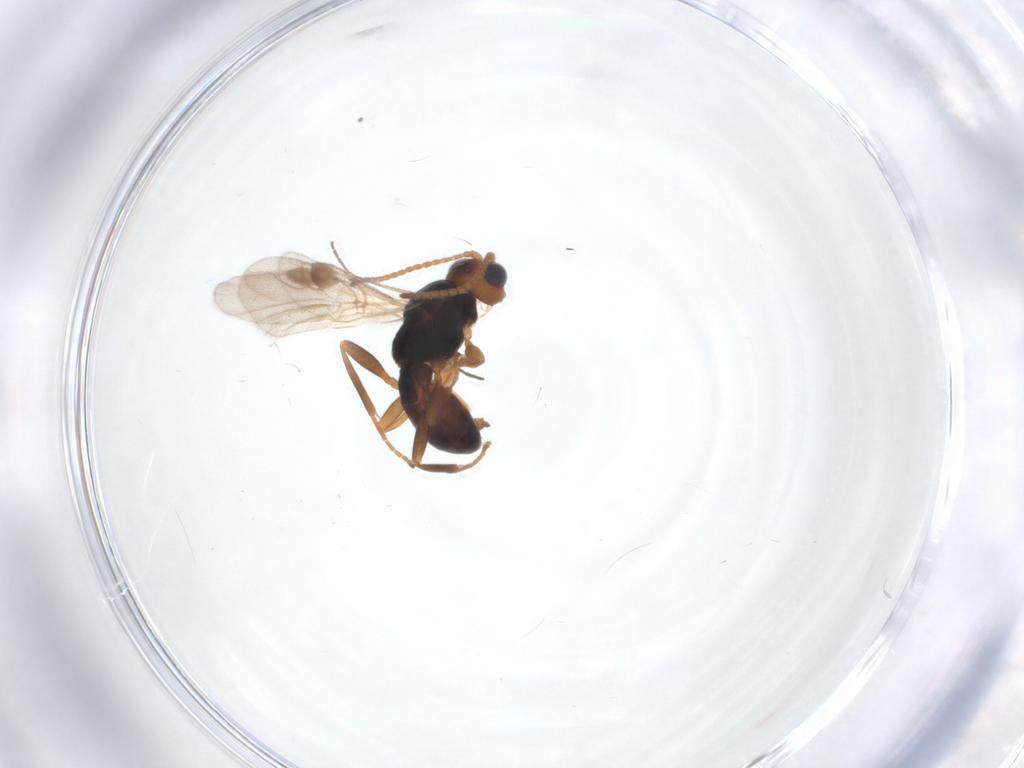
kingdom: Animalia
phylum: Arthropoda
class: Insecta
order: Hymenoptera
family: Braconidae
